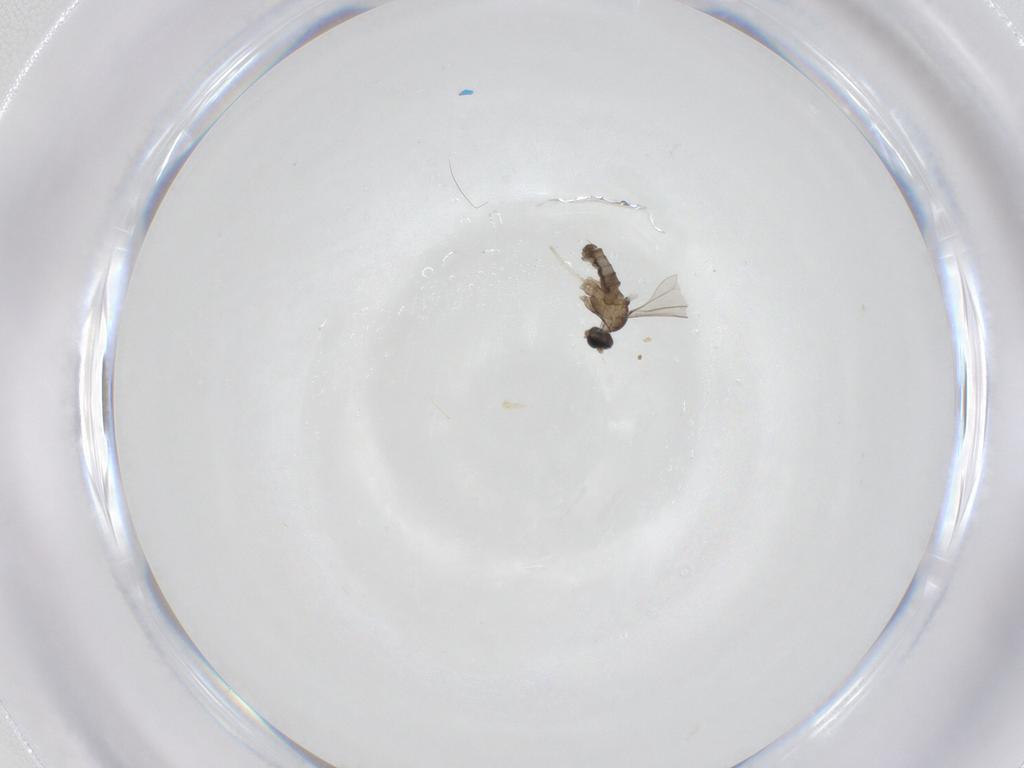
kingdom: Animalia
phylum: Arthropoda
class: Insecta
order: Diptera
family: Cecidomyiidae
